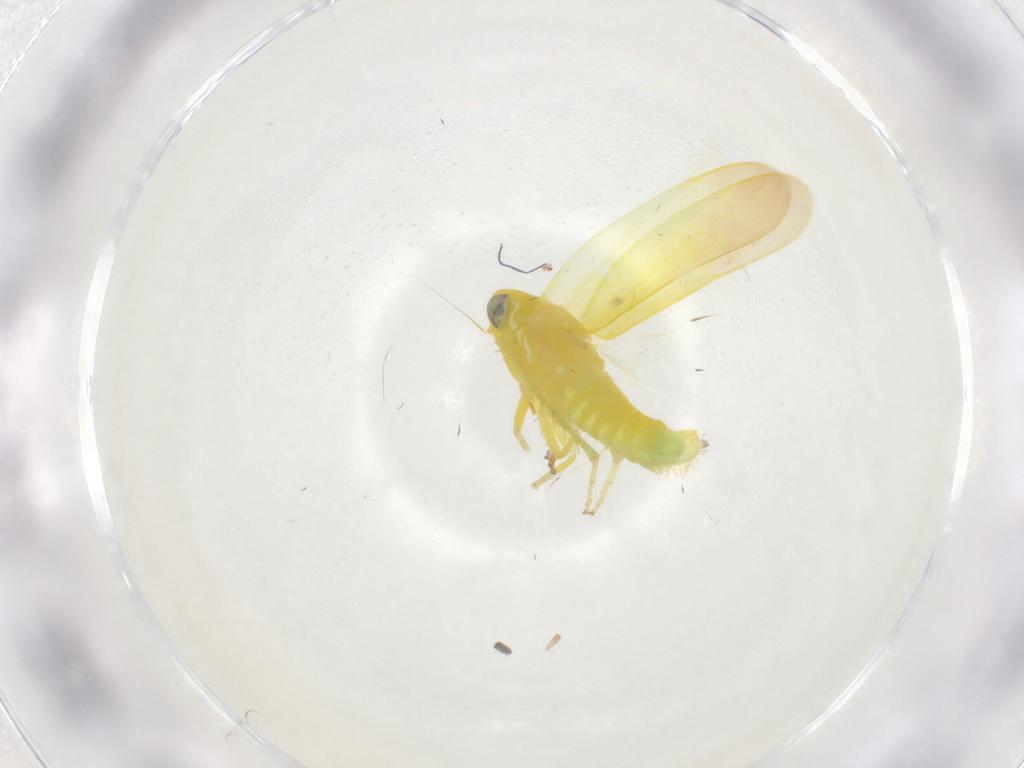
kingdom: Animalia
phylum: Arthropoda
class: Insecta
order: Hemiptera
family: Cicadellidae
